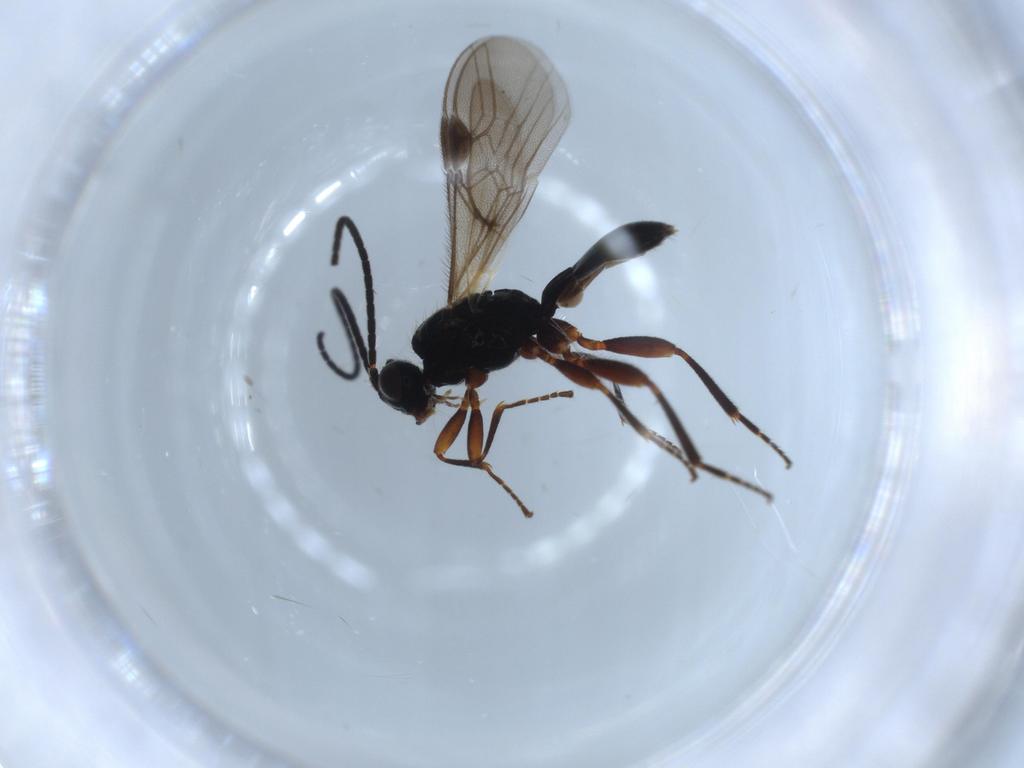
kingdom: Animalia
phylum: Arthropoda
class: Insecta
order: Hymenoptera
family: Braconidae
